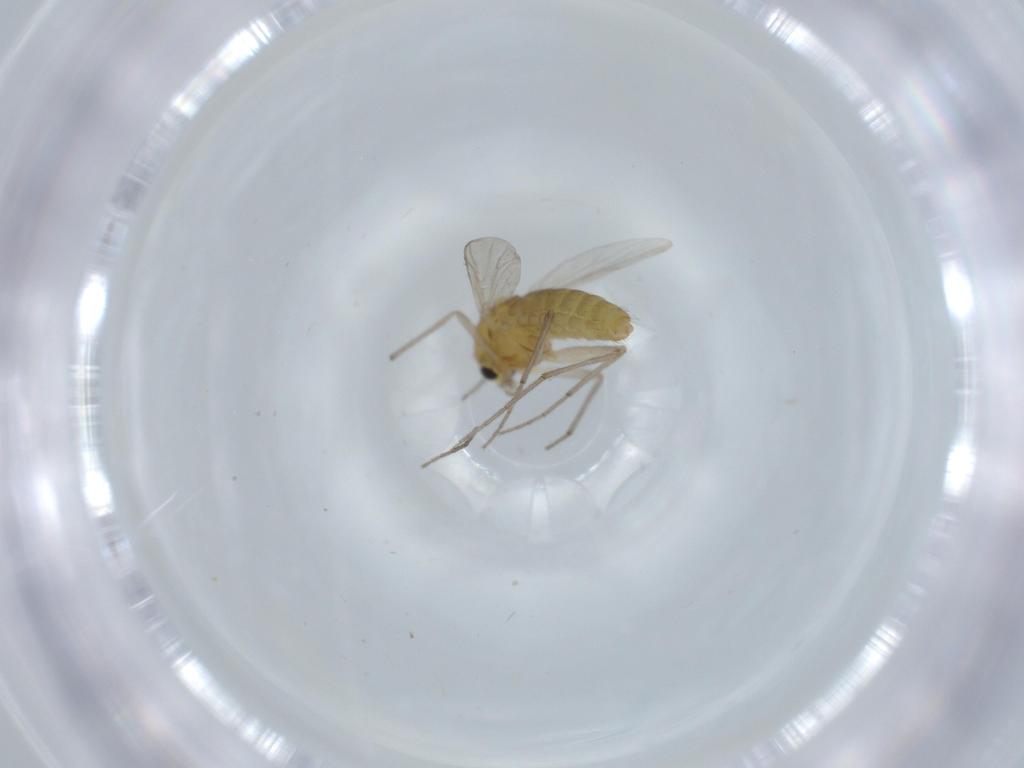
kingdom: Animalia
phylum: Arthropoda
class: Insecta
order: Diptera
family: Chironomidae
